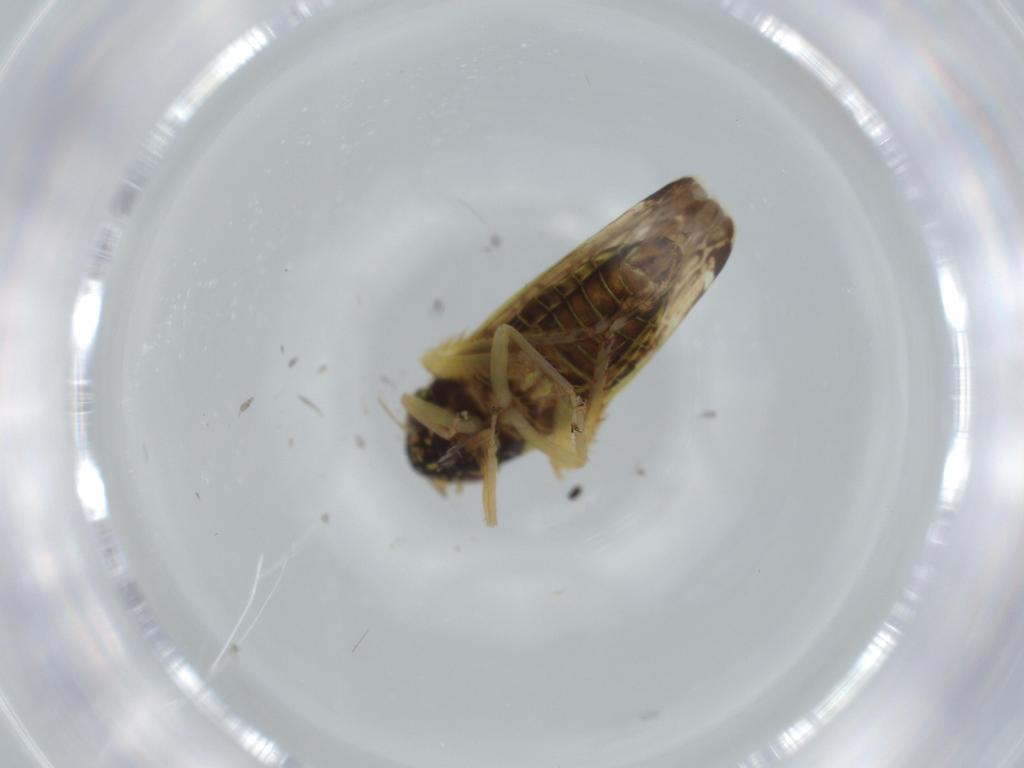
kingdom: Animalia
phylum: Arthropoda
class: Insecta
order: Hemiptera
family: Cicadellidae
